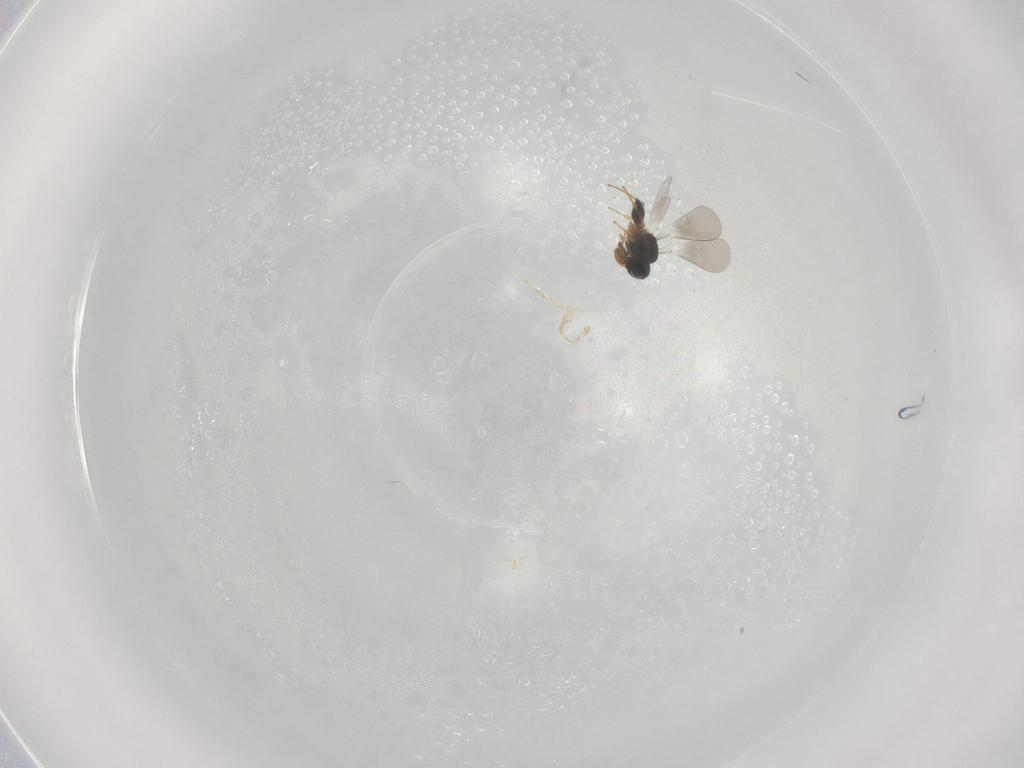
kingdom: Animalia
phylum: Arthropoda
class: Insecta
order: Hymenoptera
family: Platygastridae
